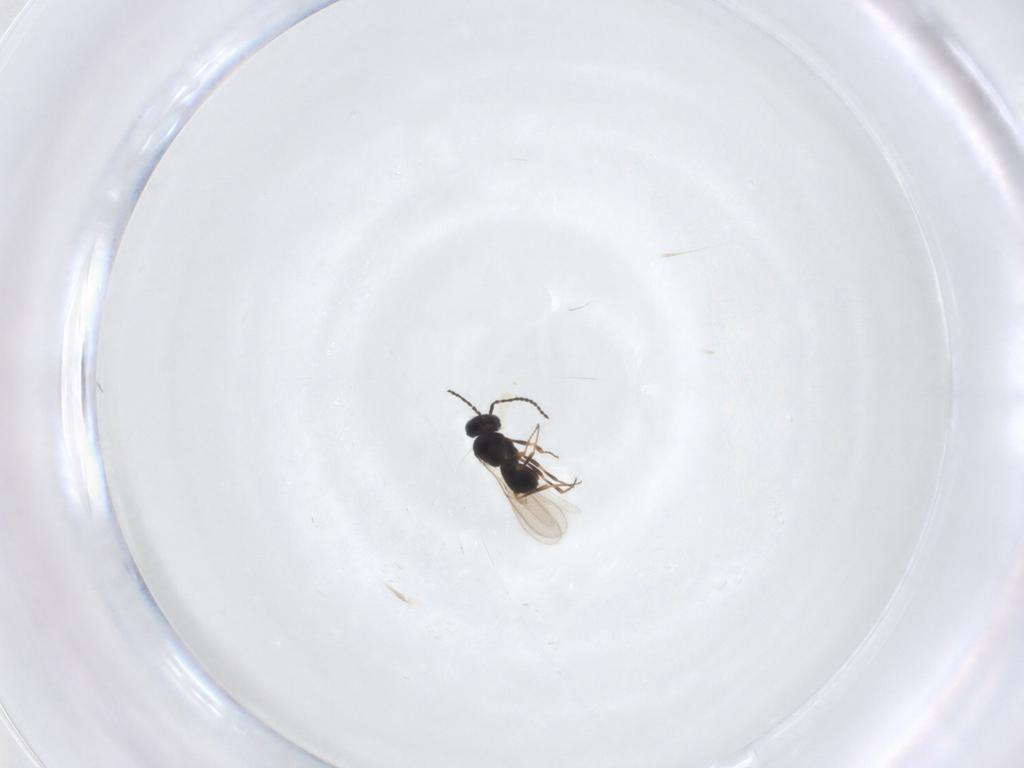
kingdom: Animalia
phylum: Arthropoda
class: Insecta
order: Hymenoptera
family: Scelionidae
